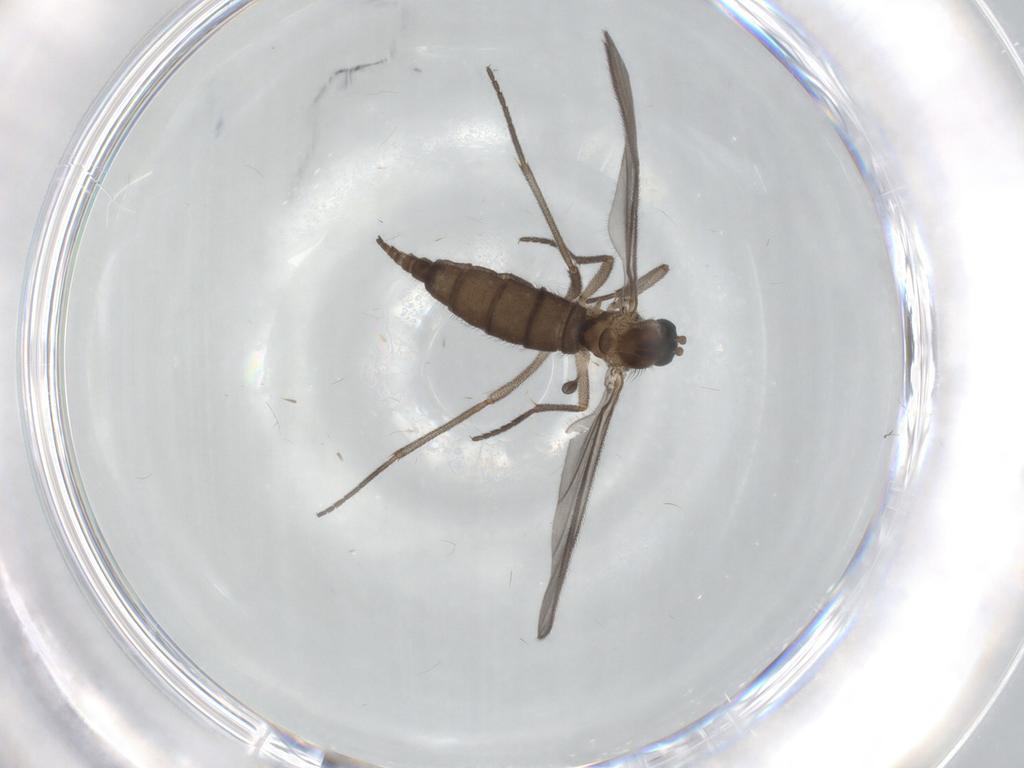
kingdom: Animalia
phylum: Arthropoda
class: Insecta
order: Diptera
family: Sciaridae
